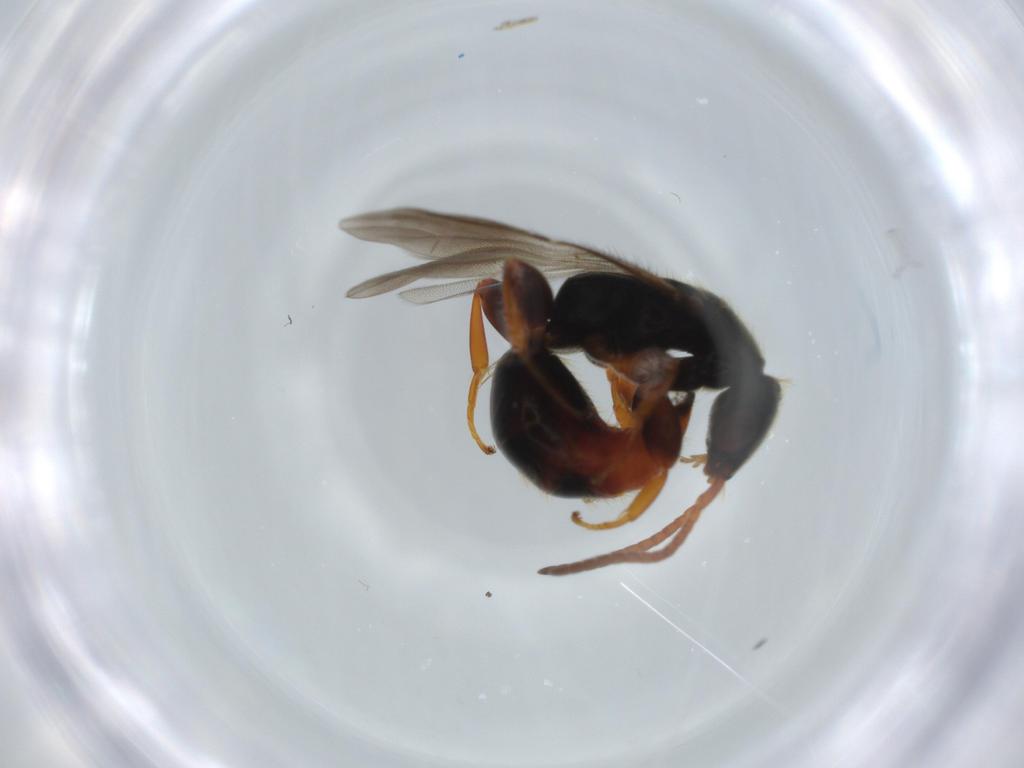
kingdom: Animalia
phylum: Arthropoda
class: Insecta
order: Hymenoptera
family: Bethylidae
